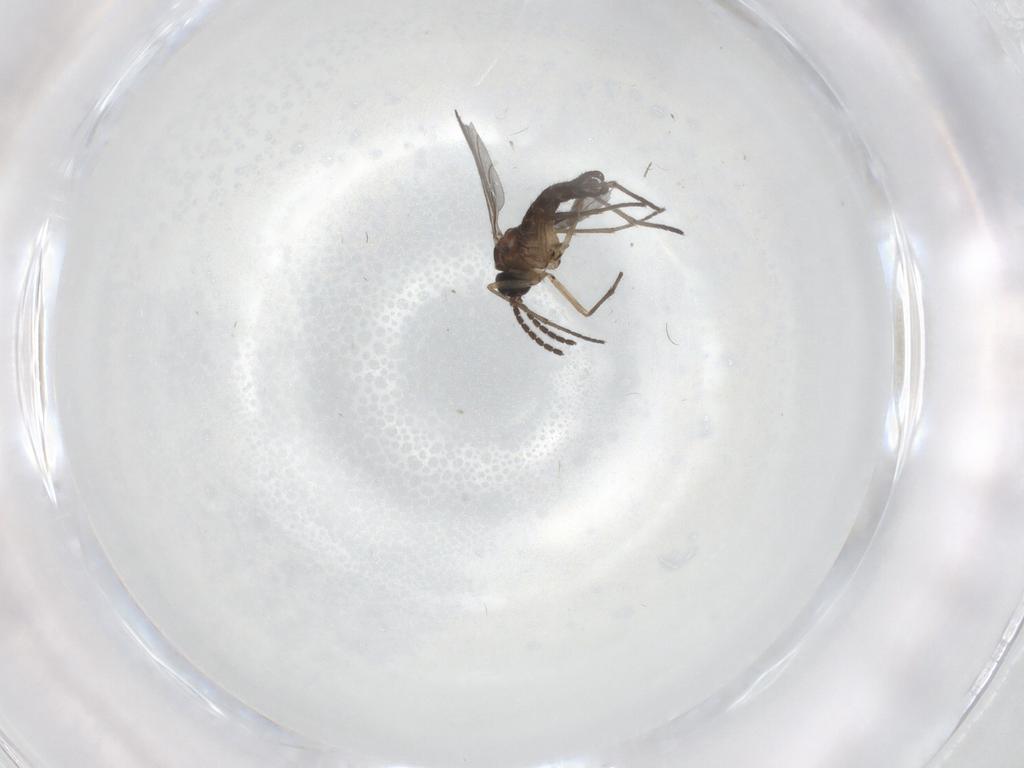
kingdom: Animalia
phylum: Arthropoda
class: Insecta
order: Diptera
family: Sciaridae
